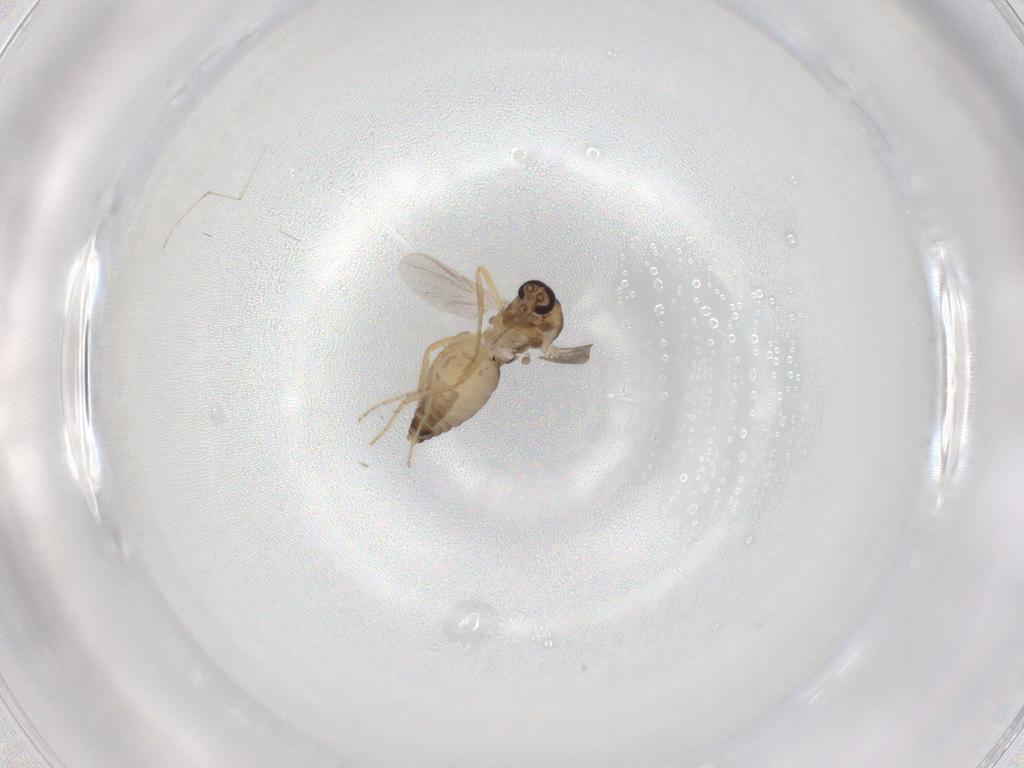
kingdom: Animalia
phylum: Arthropoda
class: Insecta
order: Diptera
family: Ceratopogonidae
